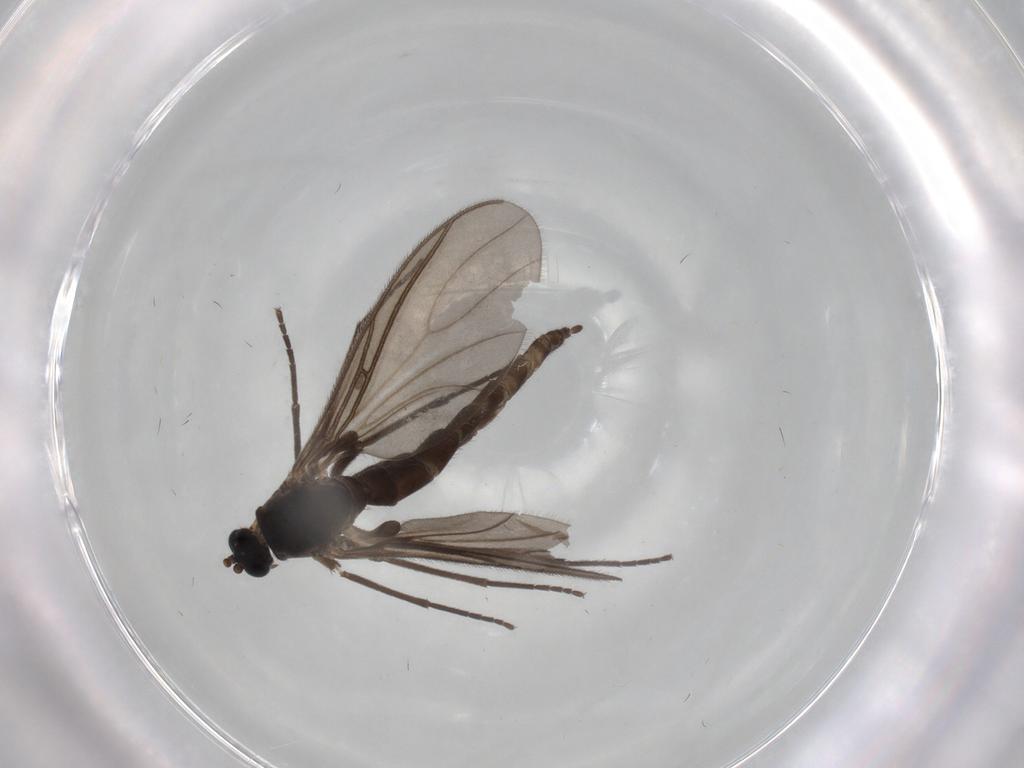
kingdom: Animalia
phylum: Arthropoda
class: Insecta
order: Diptera
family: Sciaridae
